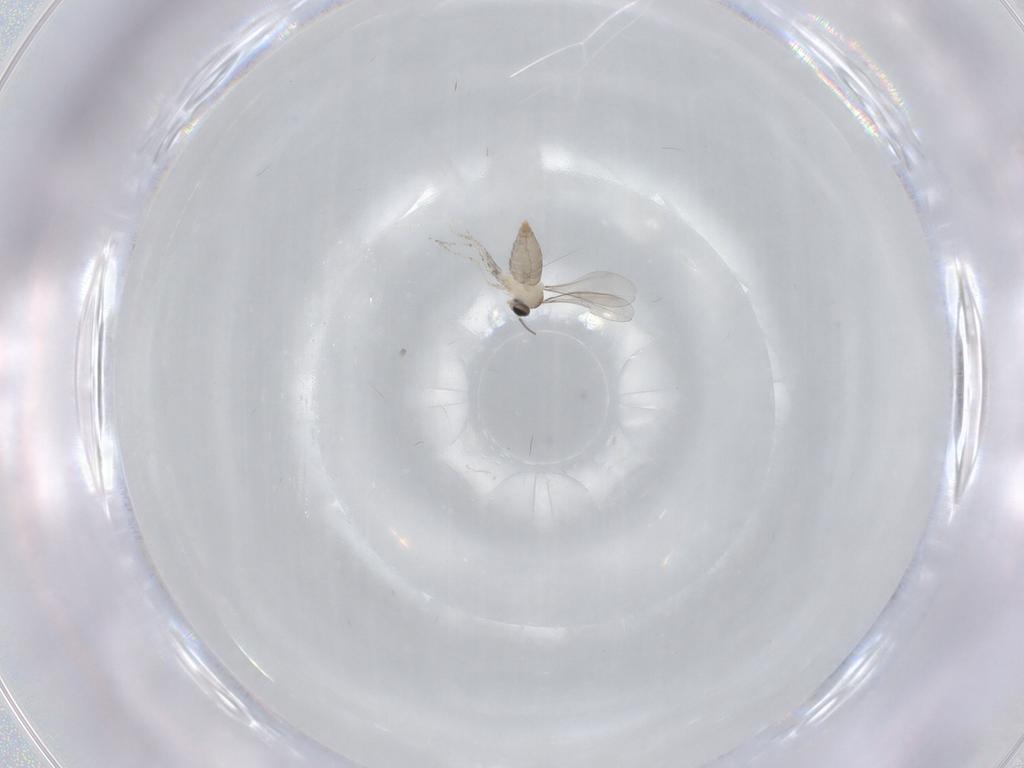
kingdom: Animalia
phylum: Arthropoda
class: Insecta
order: Diptera
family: Cecidomyiidae
